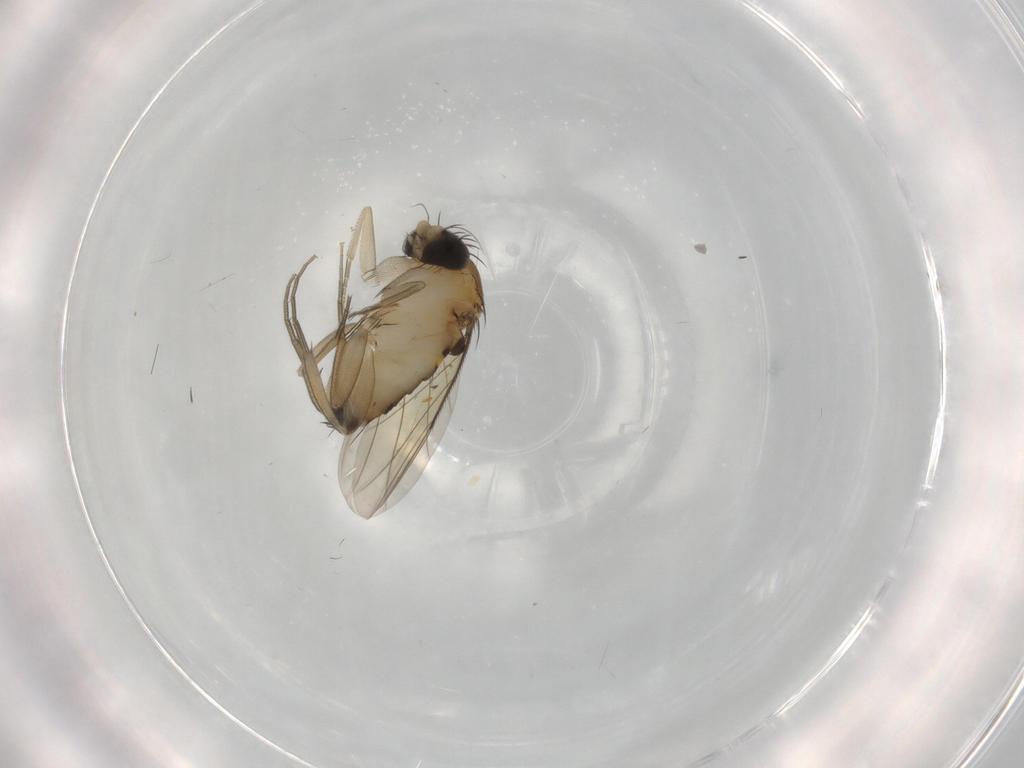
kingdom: Animalia
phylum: Arthropoda
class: Insecta
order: Diptera
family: Phoridae
